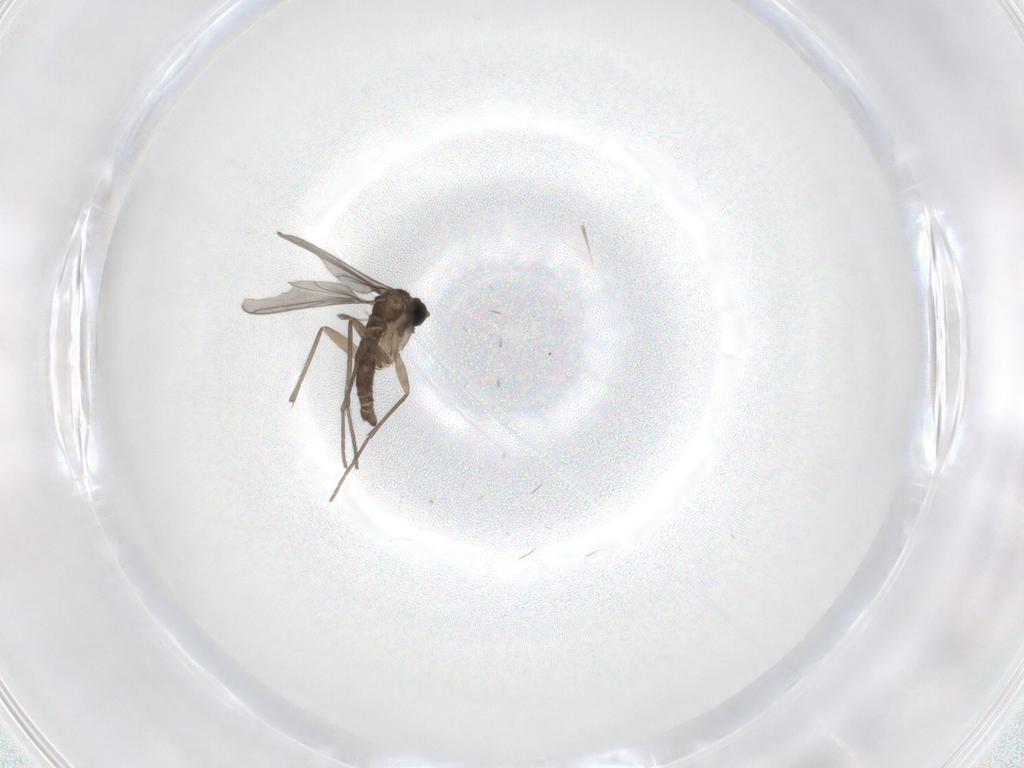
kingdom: Animalia
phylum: Arthropoda
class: Insecta
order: Diptera
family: Sciaridae
